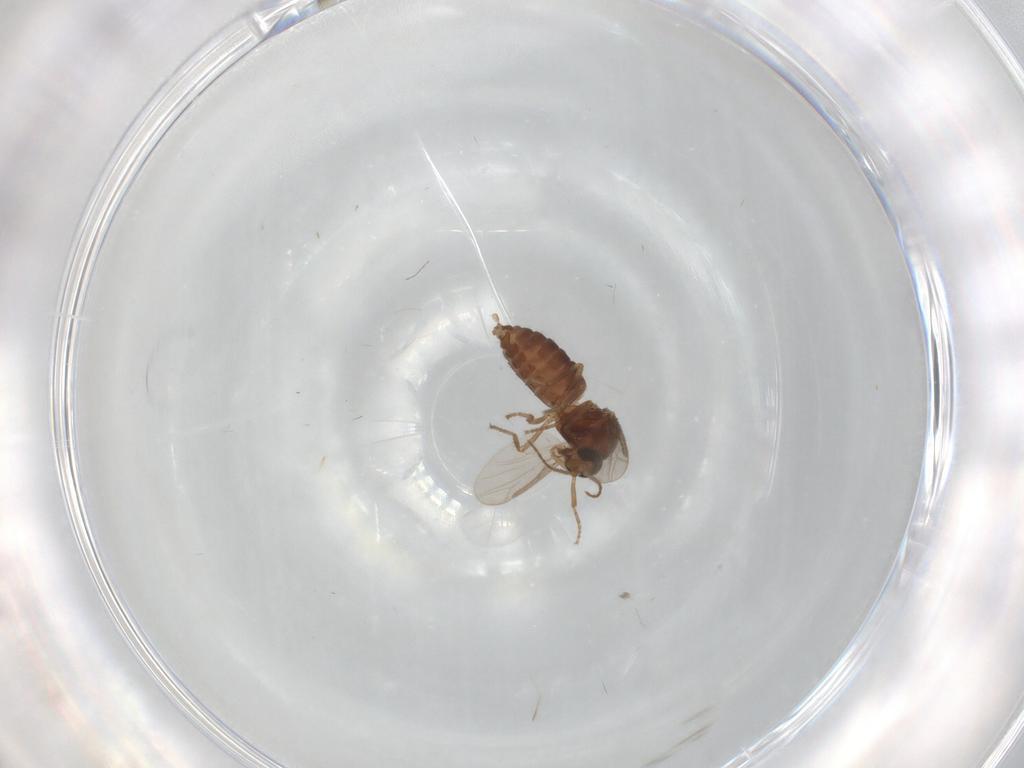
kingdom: Animalia
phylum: Arthropoda
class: Insecta
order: Diptera
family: Ceratopogonidae
